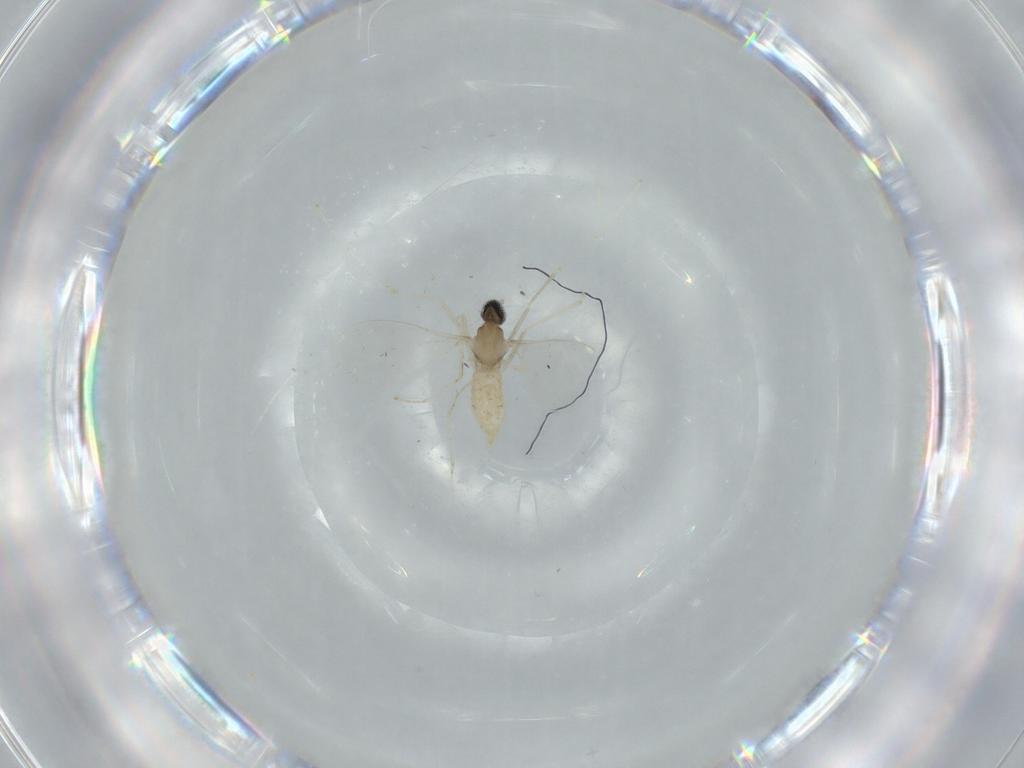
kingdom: Animalia
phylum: Arthropoda
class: Insecta
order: Diptera
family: Cecidomyiidae
